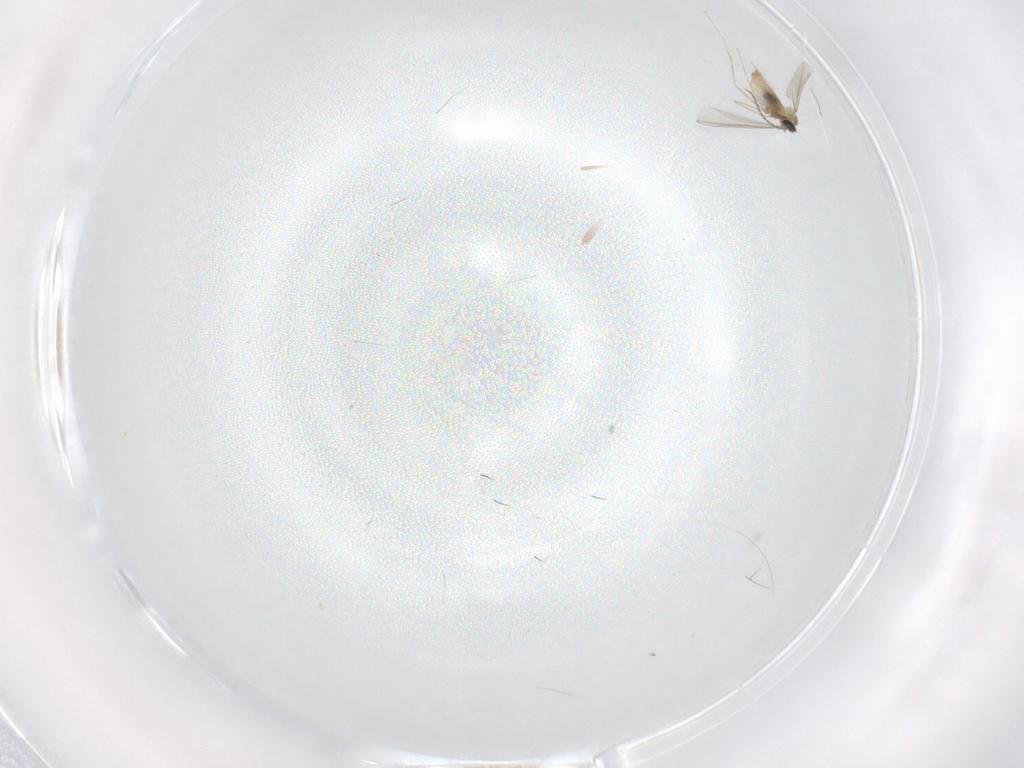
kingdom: Animalia
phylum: Arthropoda
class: Insecta
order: Diptera
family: Cecidomyiidae
